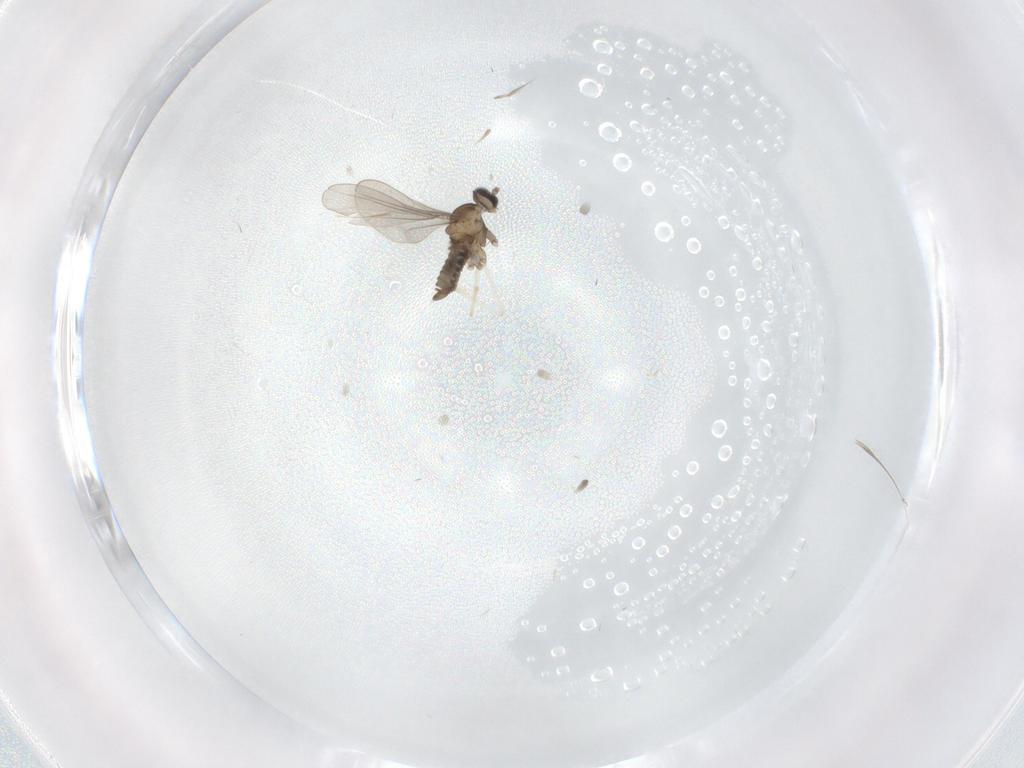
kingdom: Animalia
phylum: Arthropoda
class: Insecta
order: Diptera
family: Cecidomyiidae
